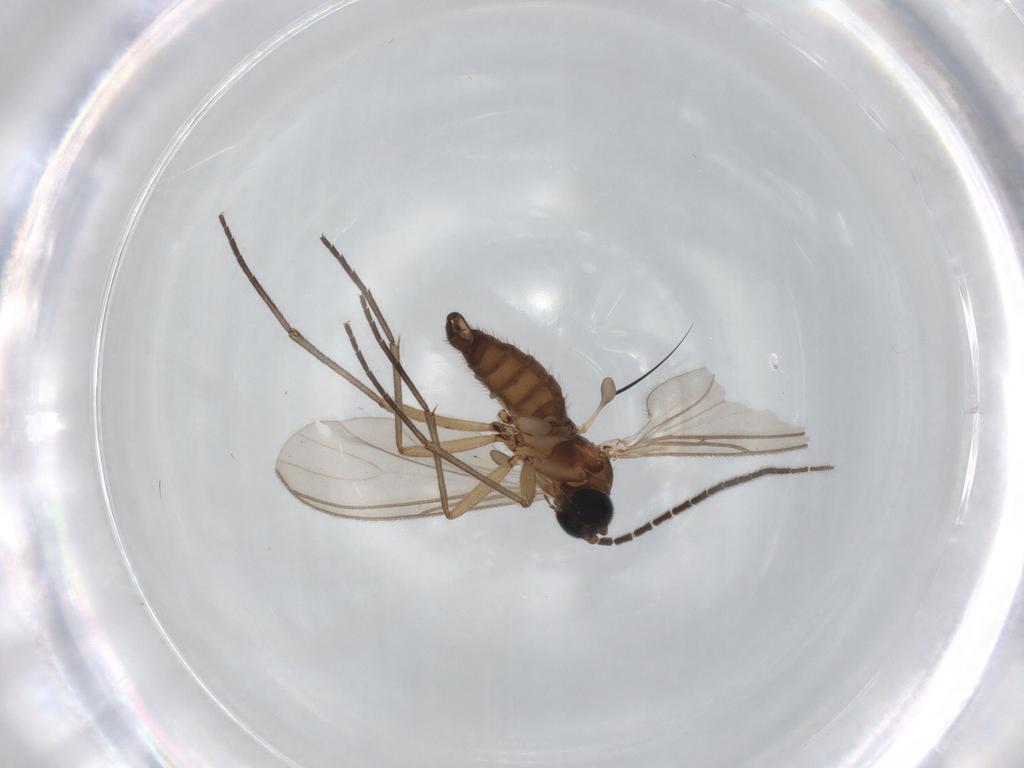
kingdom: Animalia
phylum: Arthropoda
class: Insecta
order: Diptera
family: Sciaridae
